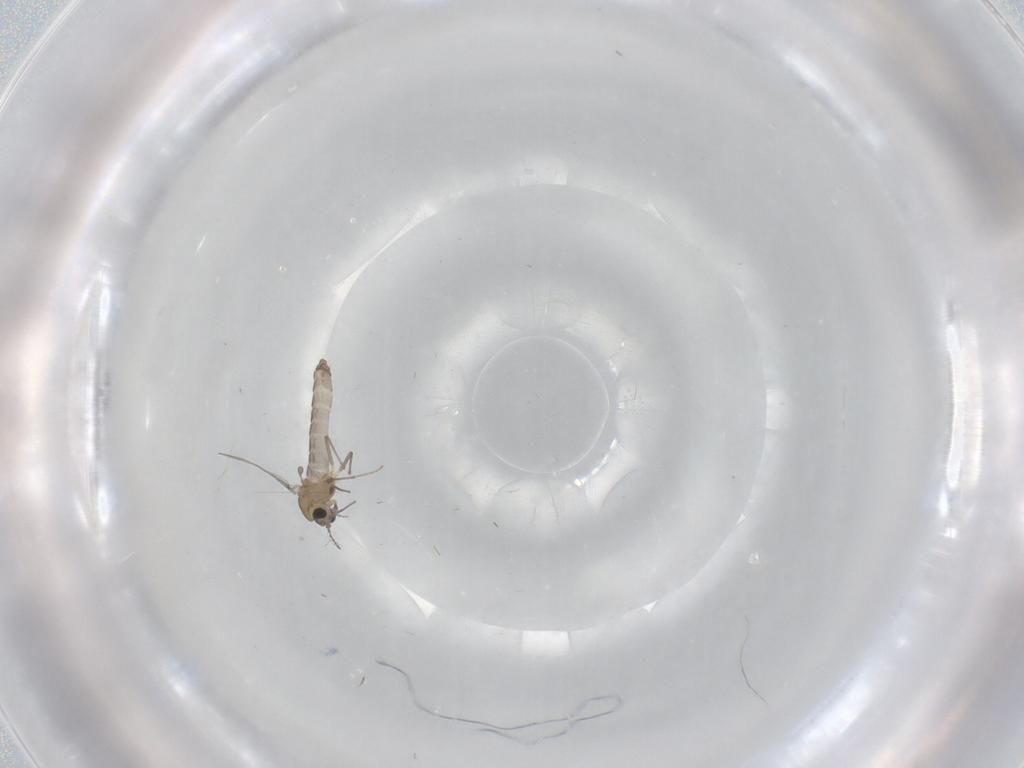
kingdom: Animalia
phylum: Arthropoda
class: Insecta
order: Diptera
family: Chironomidae
